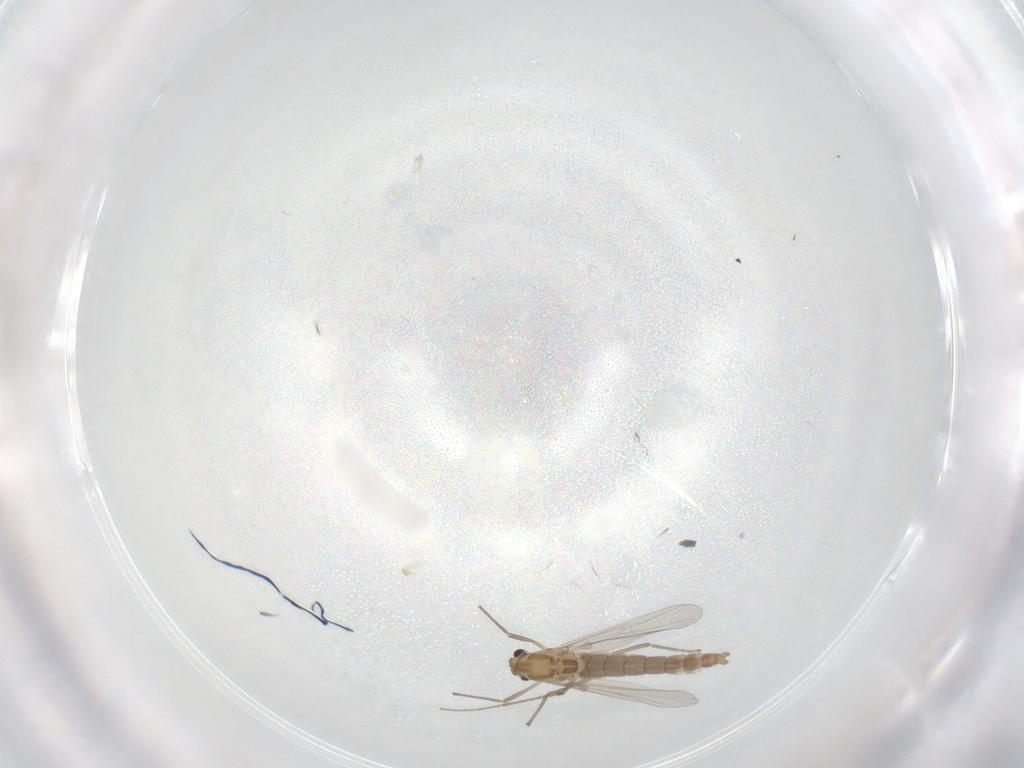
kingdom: Animalia
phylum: Arthropoda
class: Insecta
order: Diptera
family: Chironomidae
